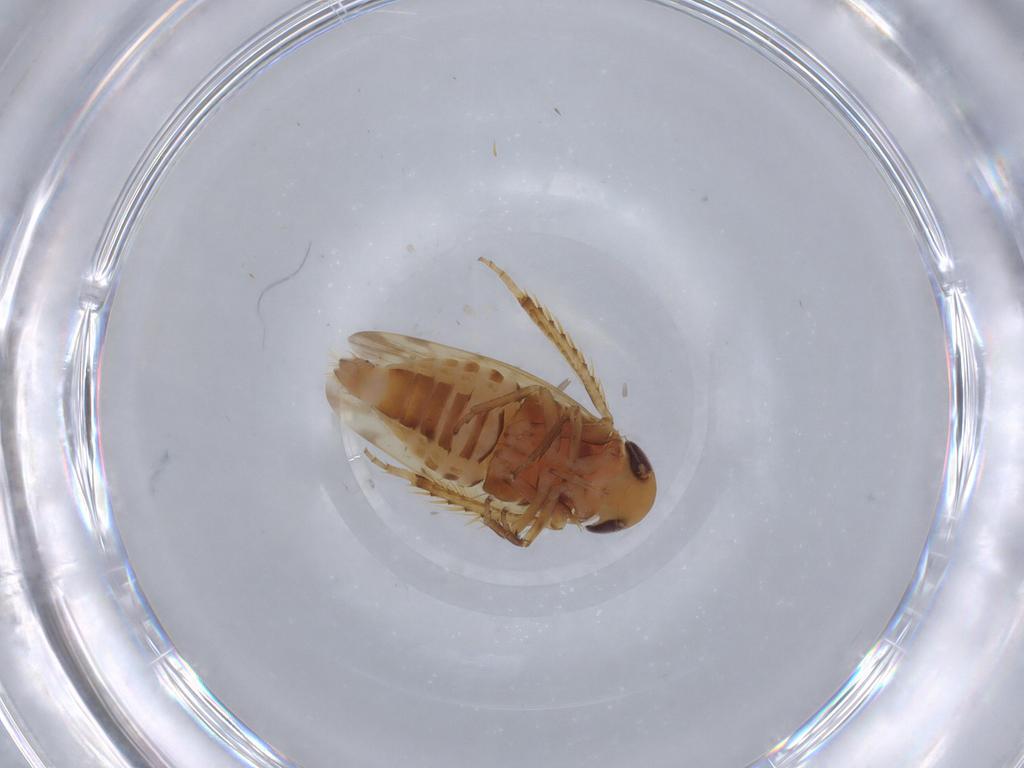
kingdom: Animalia
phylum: Arthropoda
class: Insecta
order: Hemiptera
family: Cicadellidae
